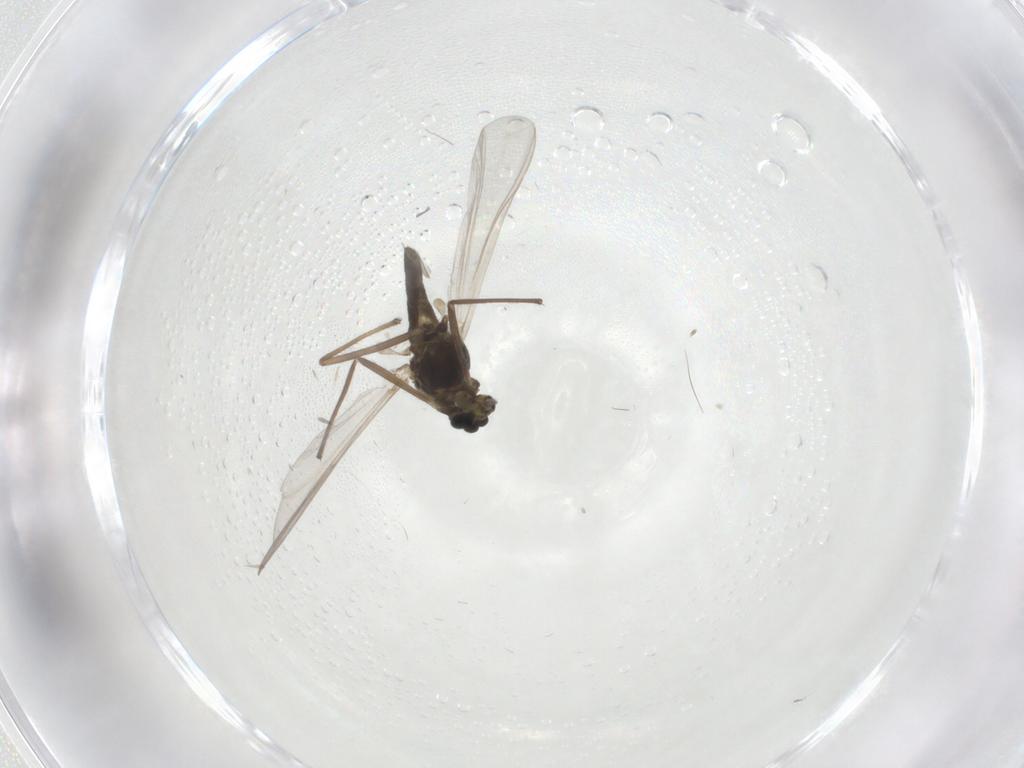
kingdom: Animalia
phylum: Arthropoda
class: Insecta
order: Diptera
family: Chironomidae
